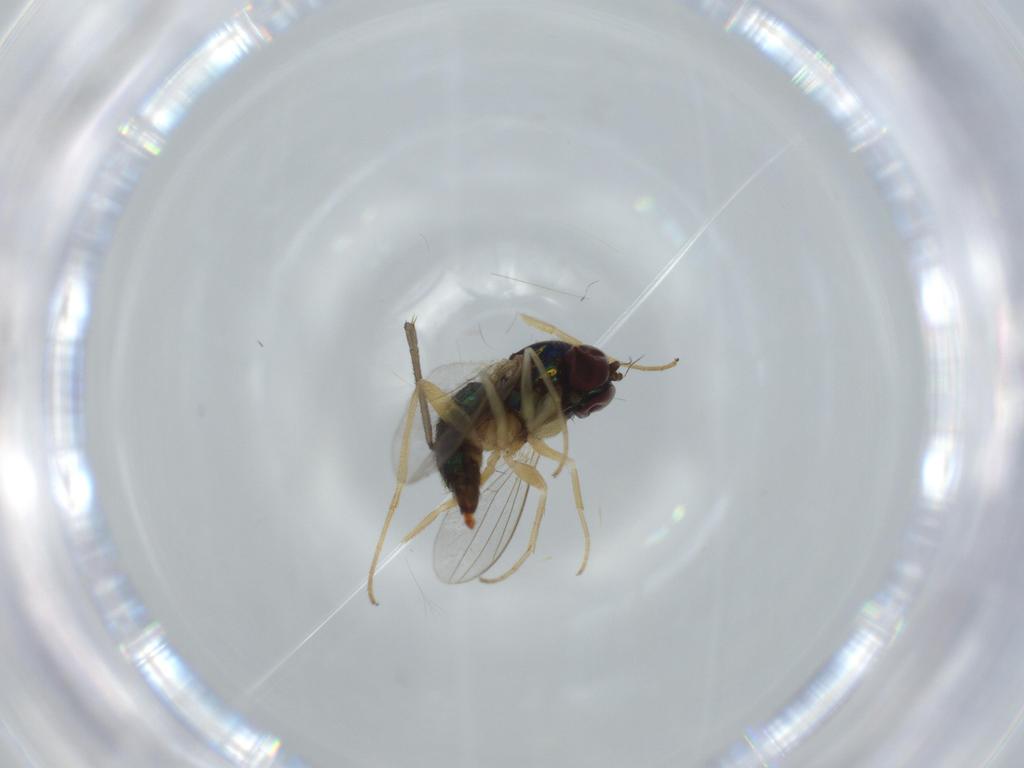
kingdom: Animalia
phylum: Arthropoda
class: Insecta
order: Diptera
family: Dolichopodidae
